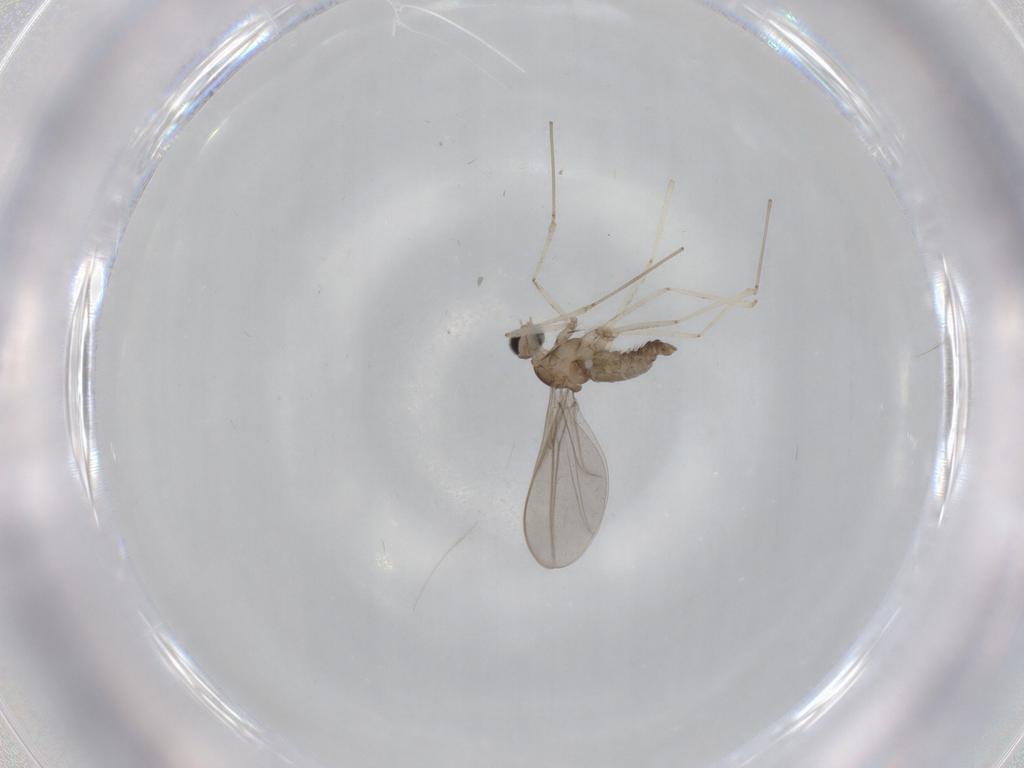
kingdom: Animalia
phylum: Arthropoda
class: Insecta
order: Diptera
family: Cecidomyiidae
